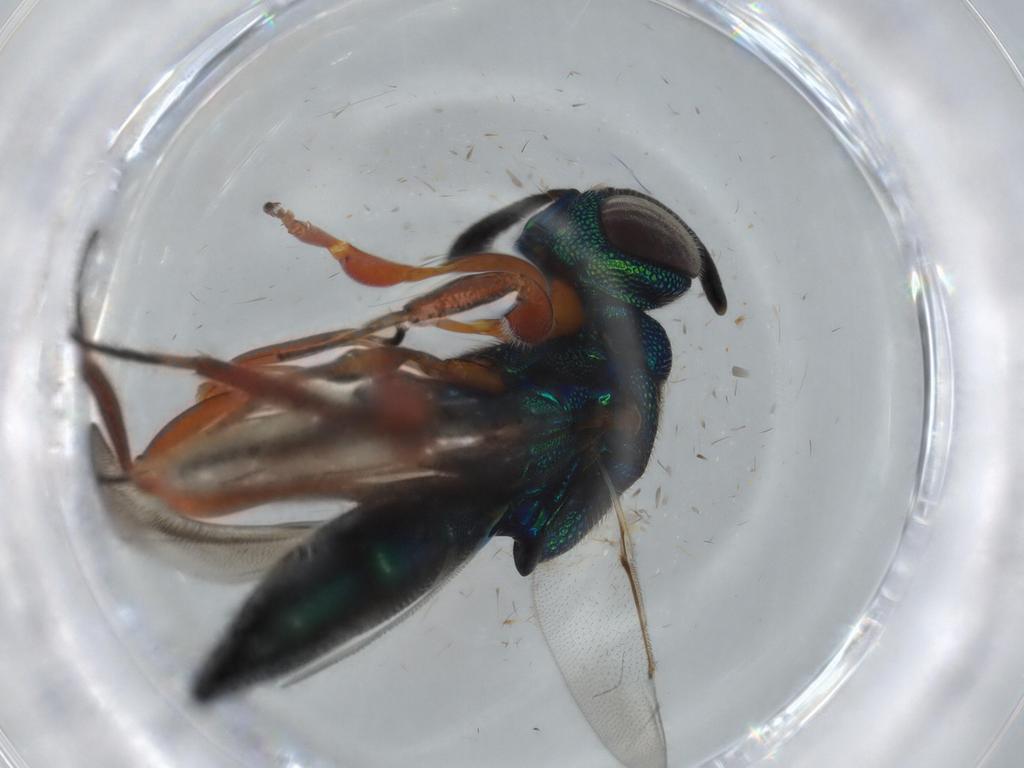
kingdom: Animalia
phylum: Arthropoda
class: Insecta
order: Hymenoptera
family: Lyciscidae
